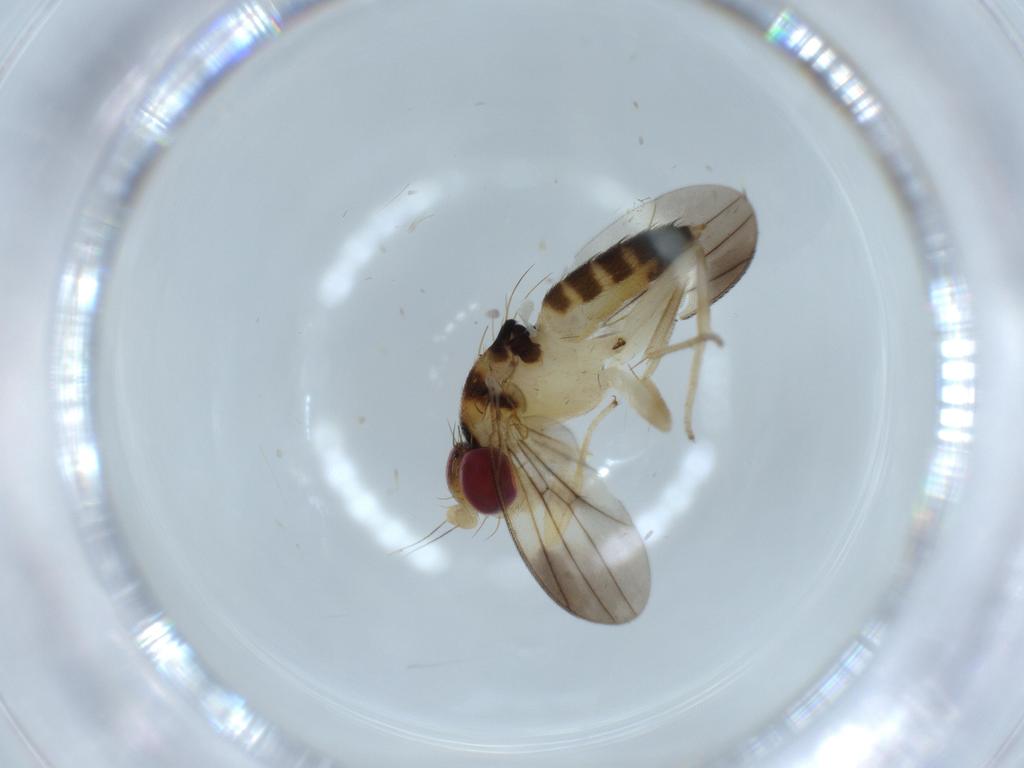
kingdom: Animalia
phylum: Arthropoda
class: Insecta
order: Diptera
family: Clusiidae
